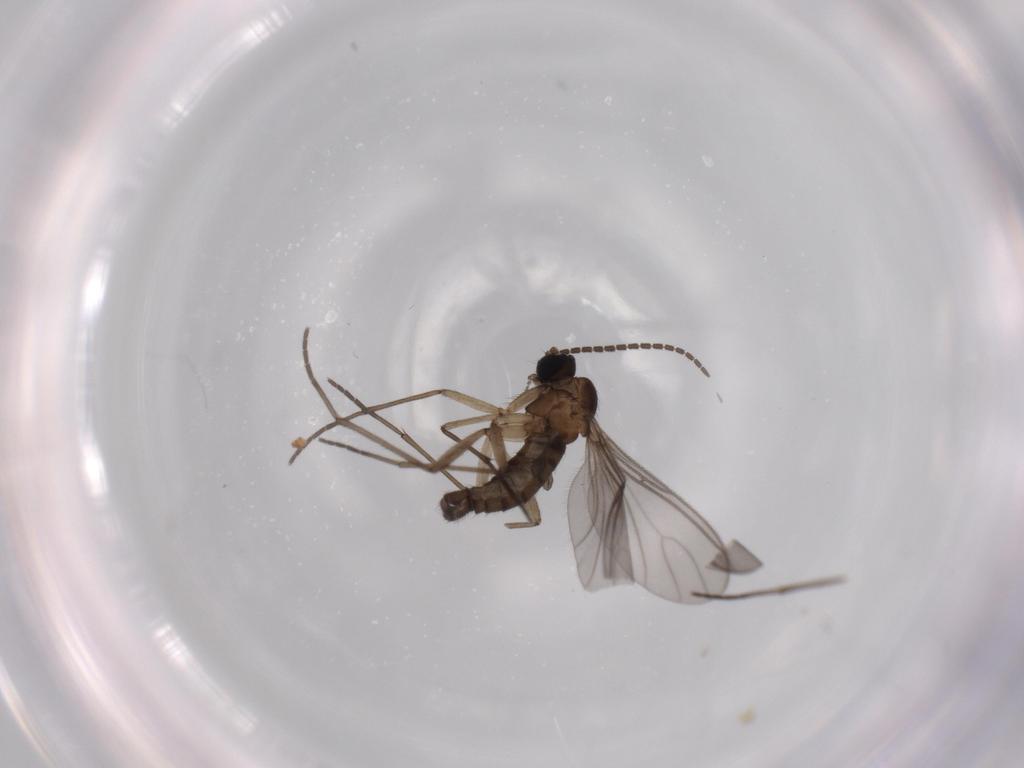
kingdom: Animalia
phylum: Arthropoda
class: Insecta
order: Diptera
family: Sciaridae
